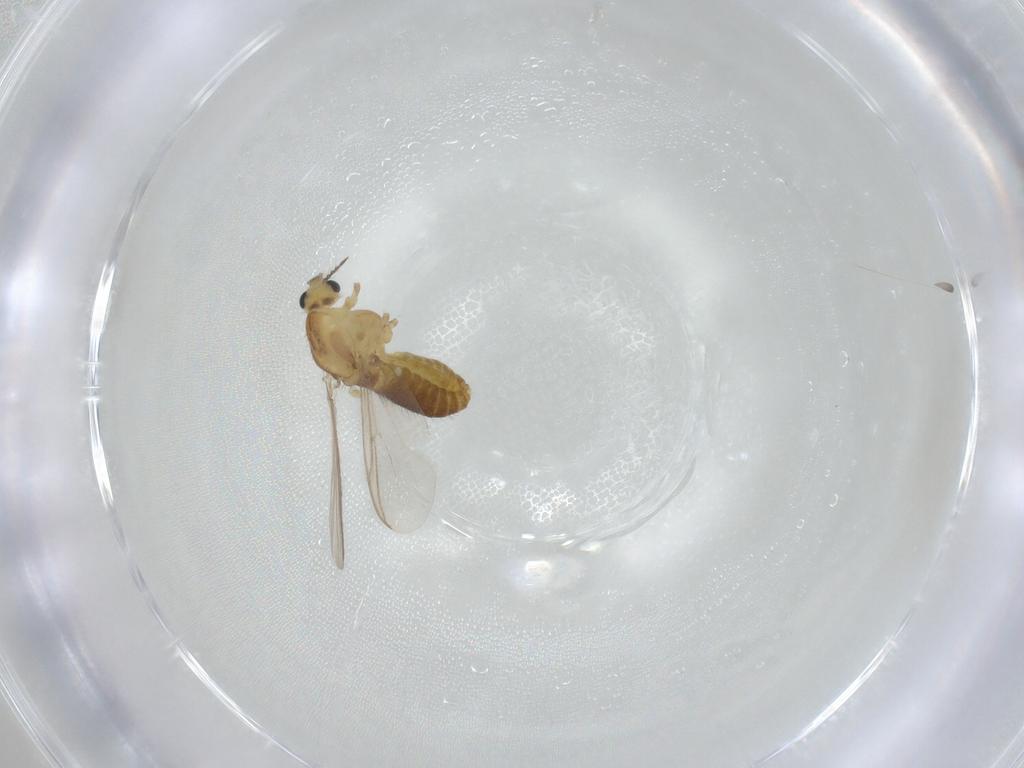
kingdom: Animalia
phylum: Arthropoda
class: Insecta
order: Diptera
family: Chironomidae
